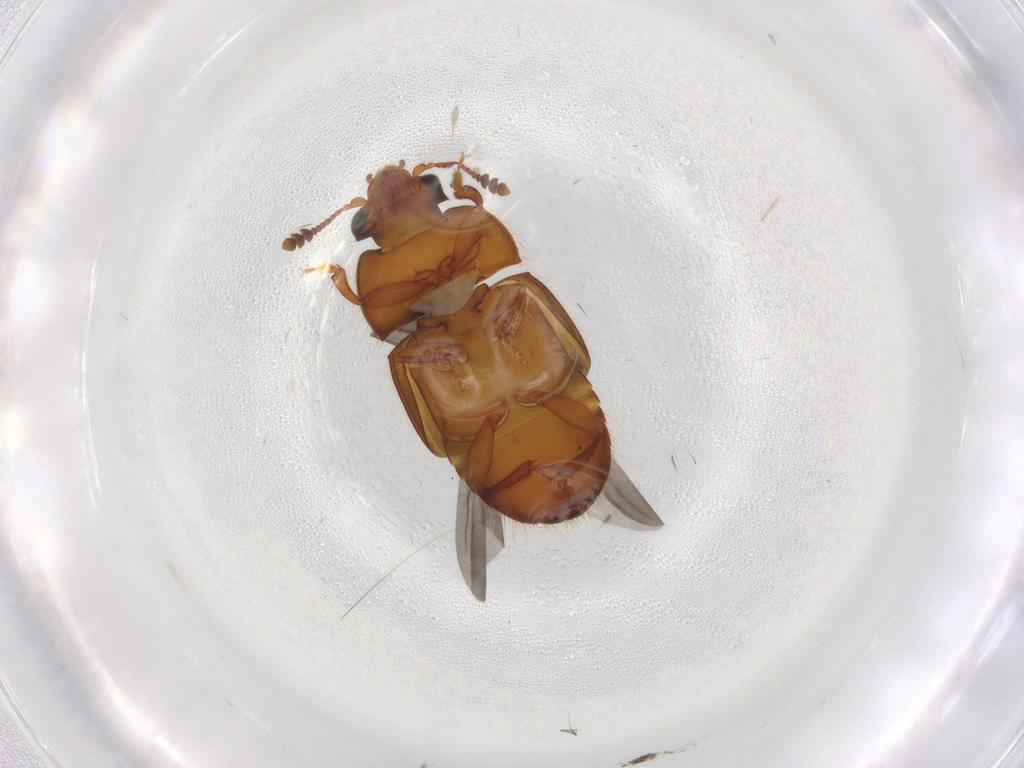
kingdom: Animalia
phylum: Arthropoda
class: Insecta
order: Coleoptera
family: Nitidulidae
